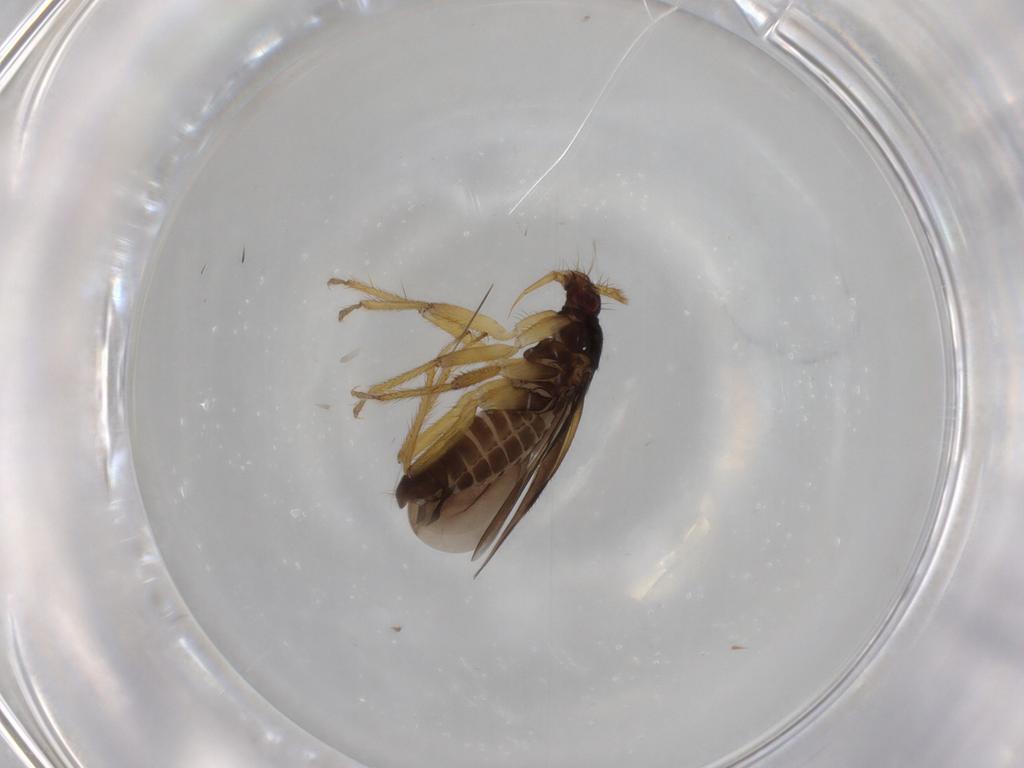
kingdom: Animalia
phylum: Arthropoda
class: Insecta
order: Hemiptera
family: Ceratocombidae
